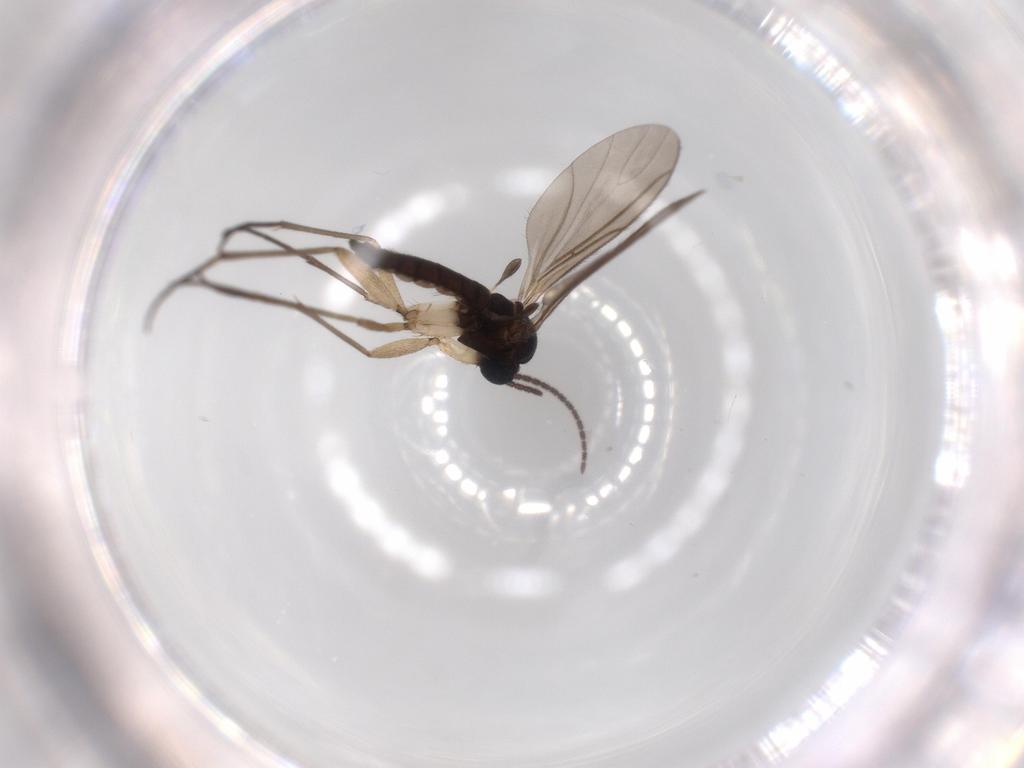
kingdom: Animalia
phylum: Arthropoda
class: Insecta
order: Diptera
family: Sciaridae
